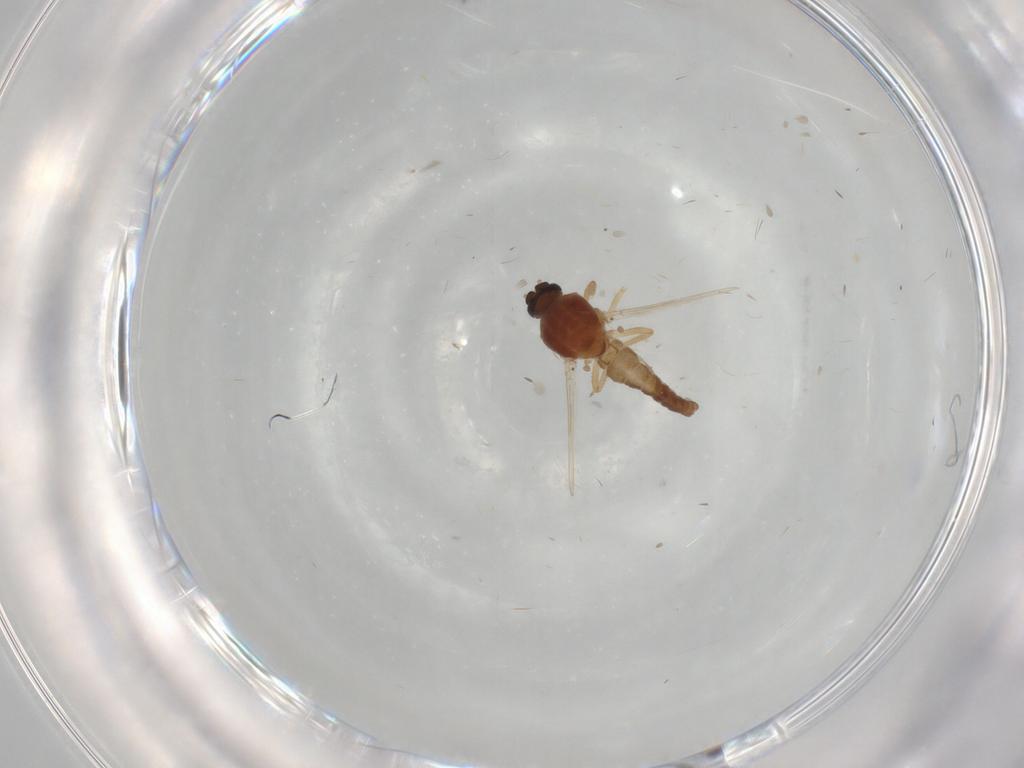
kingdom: Animalia
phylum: Arthropoda
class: Insecta
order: Diptera
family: Ceratopogonidae
